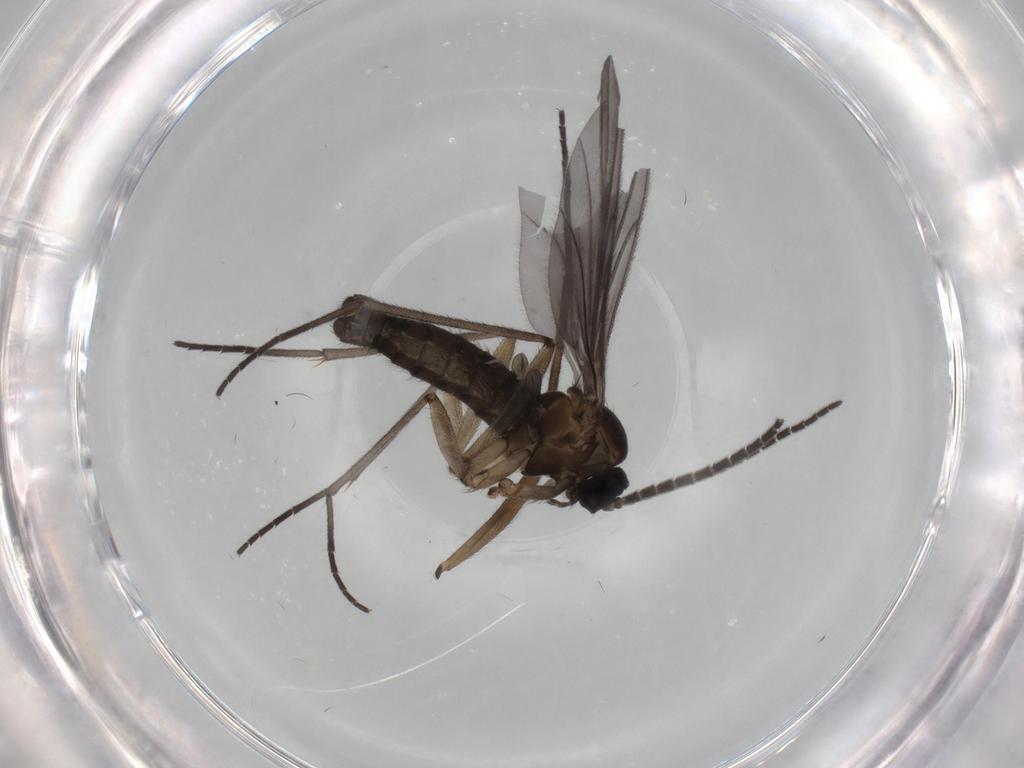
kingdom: Animalia
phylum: Arthropoda
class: Insecta
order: Diptera
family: Sciaridae
